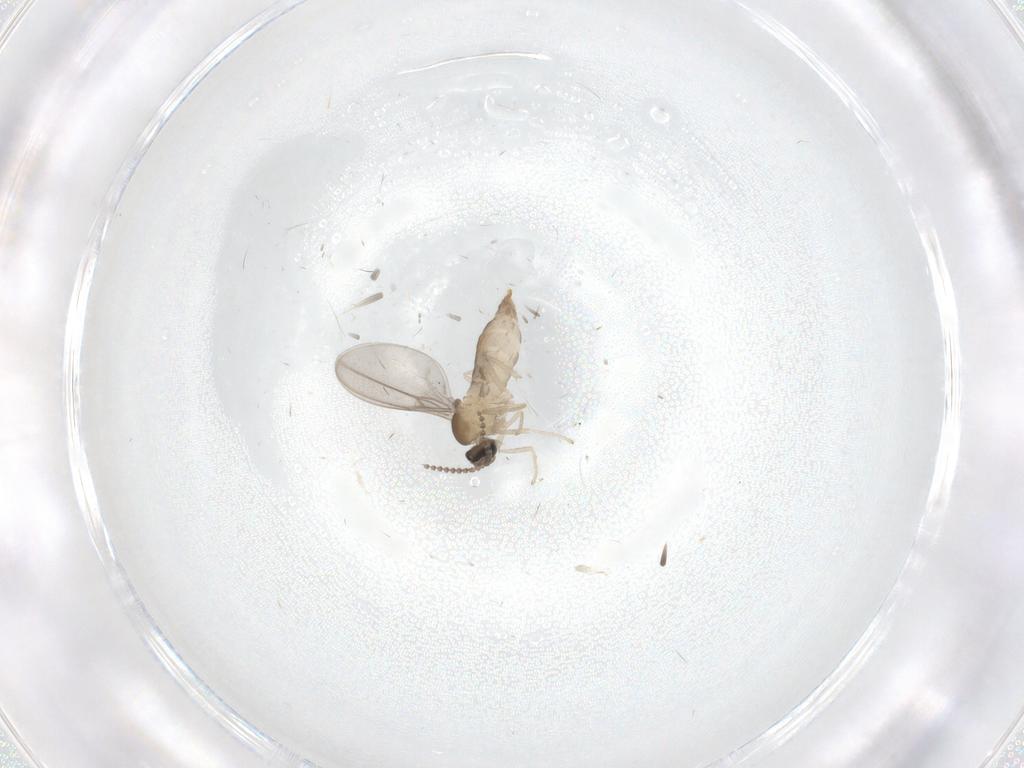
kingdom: Animalia
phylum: Arthropoda
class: Insecta
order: Diptera
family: Cecidomyiidae
